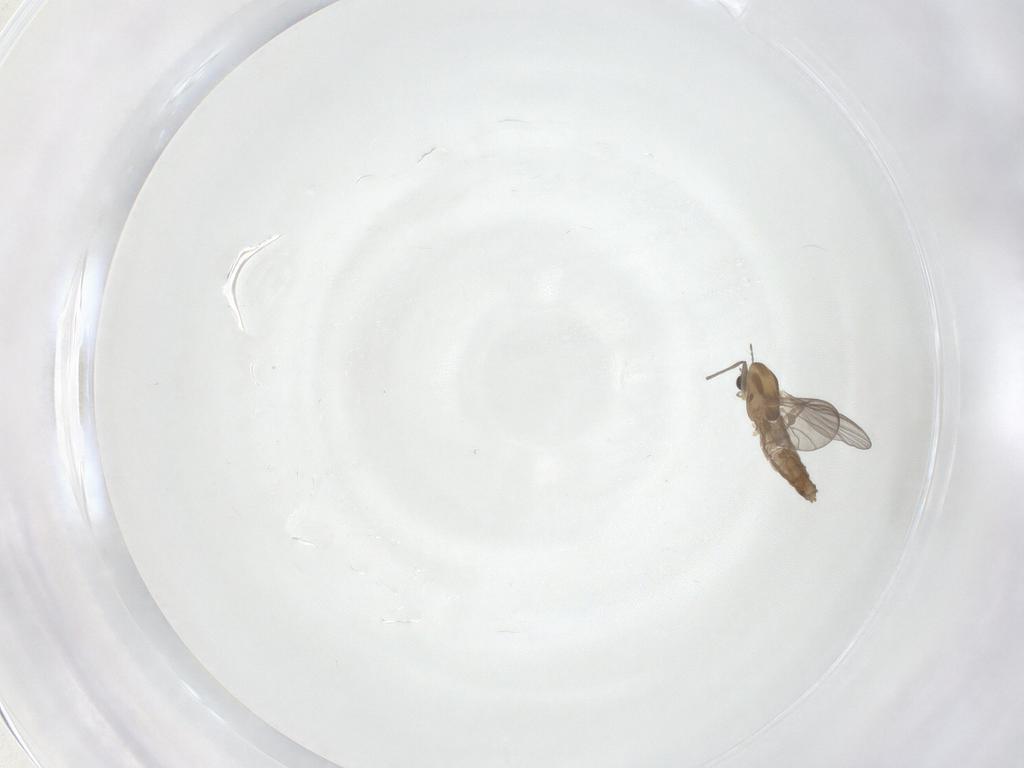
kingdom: Animalia
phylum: Arthropoda
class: Insecta
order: Diptera
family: Chironomidae
